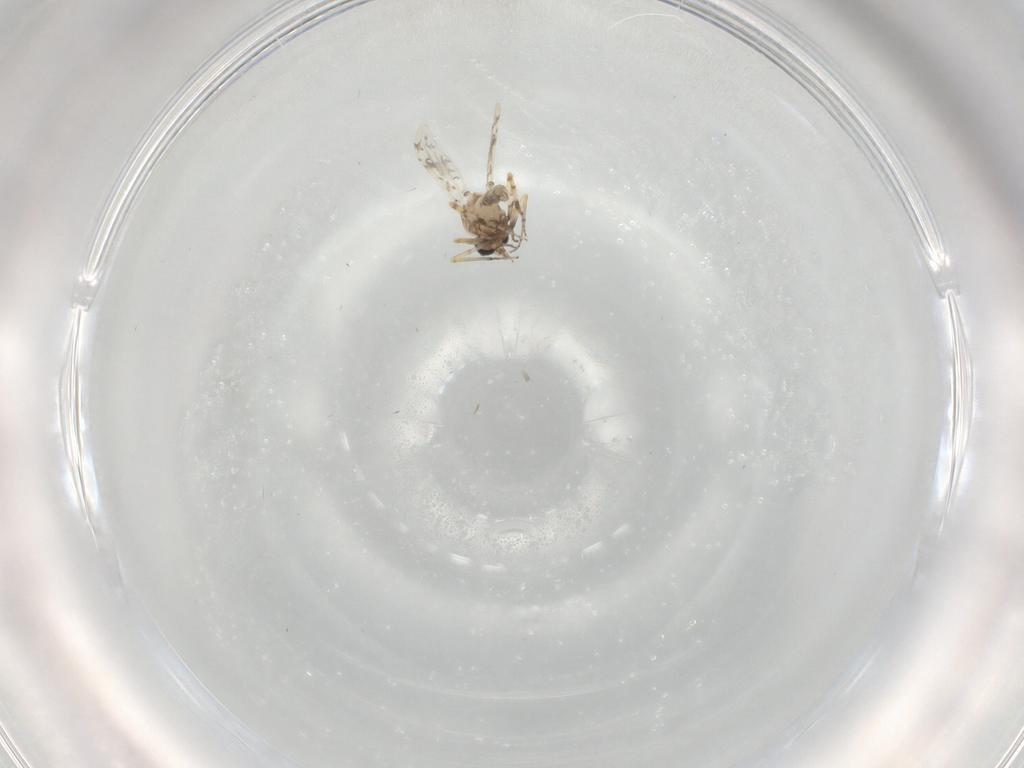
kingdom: Animalia
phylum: Arthropoda
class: Insecta
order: Diptera
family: Ceratopogonidae
